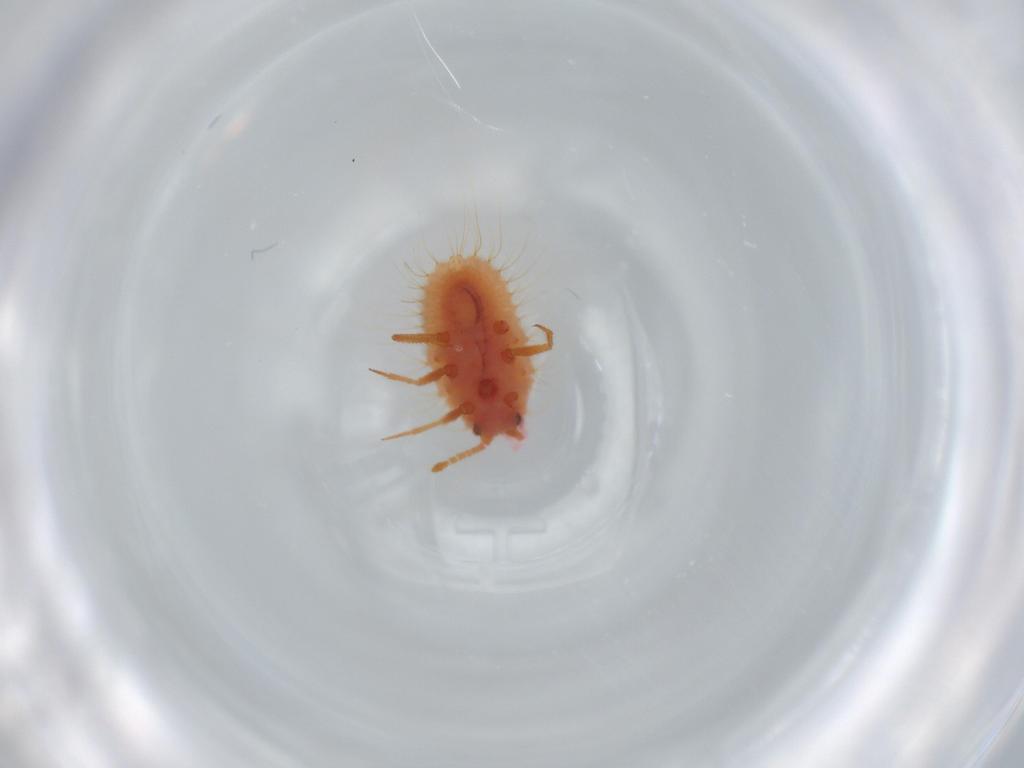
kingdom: Animalia
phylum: Arthropoda
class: Insecta
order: Hemiptera
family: Coccoidea_incertae_sedis
